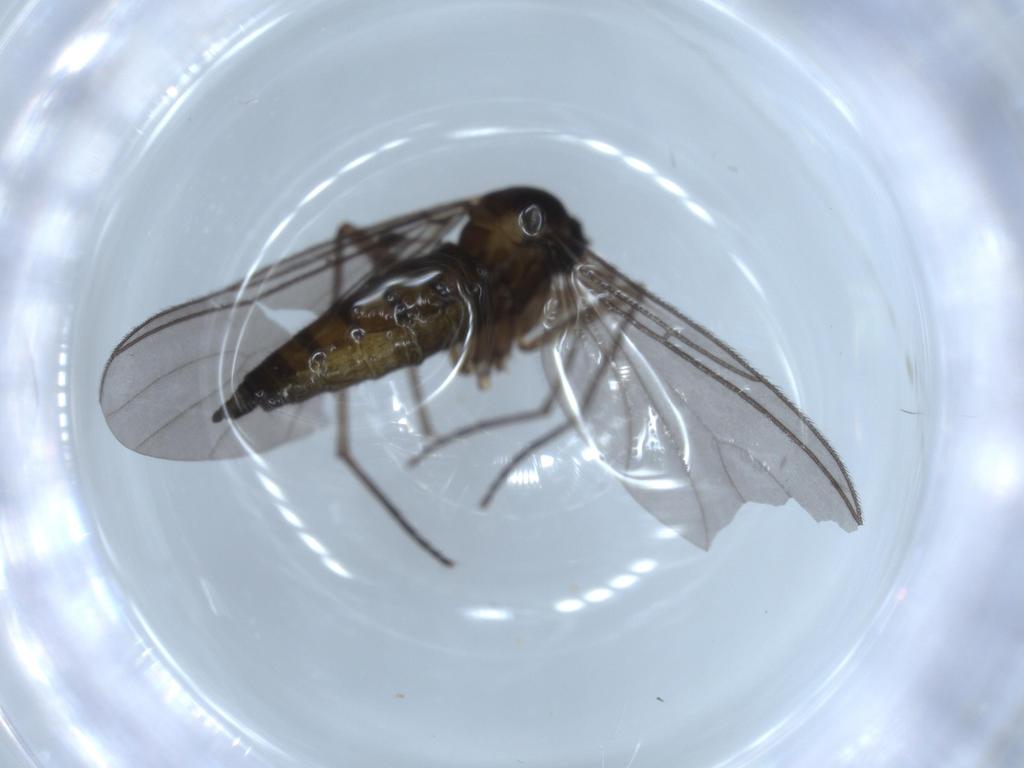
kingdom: Animalia
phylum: Arthropoda
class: Insecta
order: Diptera
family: Sciaridae
